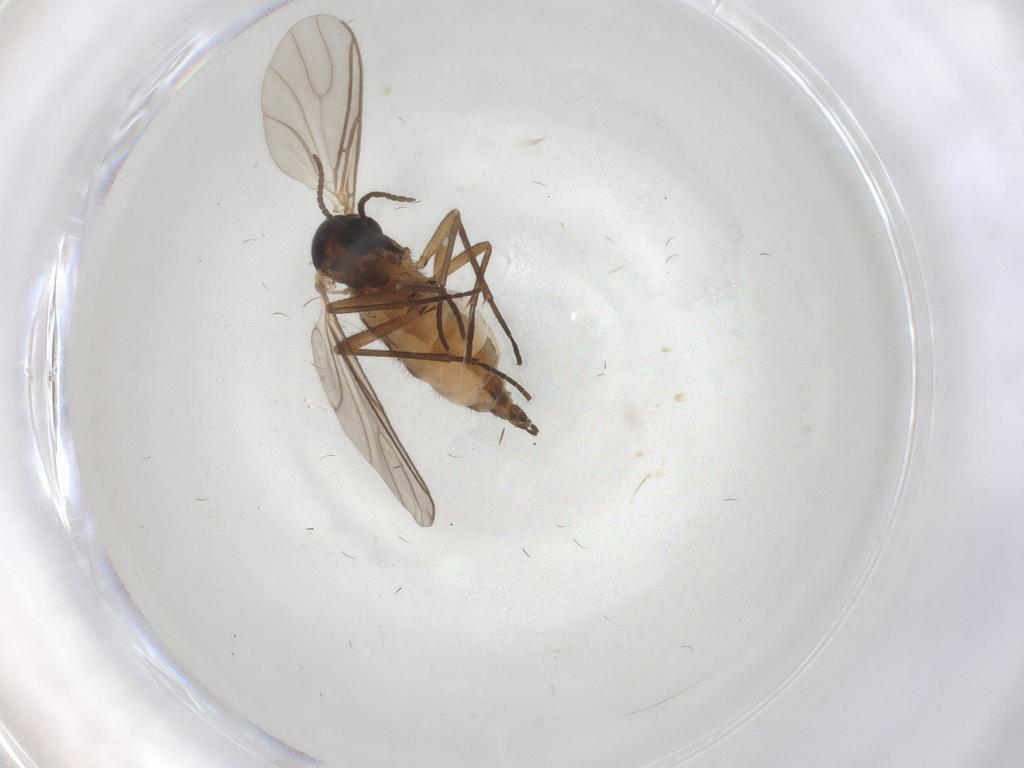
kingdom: Animalia
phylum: Arthropoda
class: Insecta
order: Diptera
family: Sciaridae
